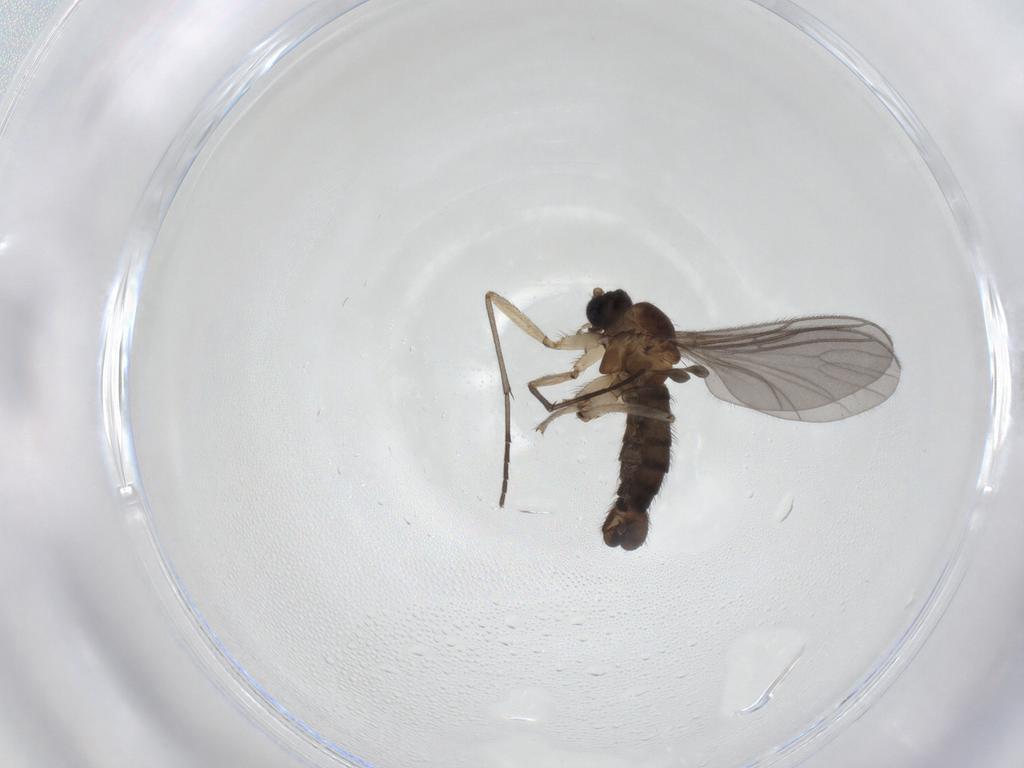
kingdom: Animalia
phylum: Arthropoda
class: Insecta
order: Diptera
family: Sciaridae
